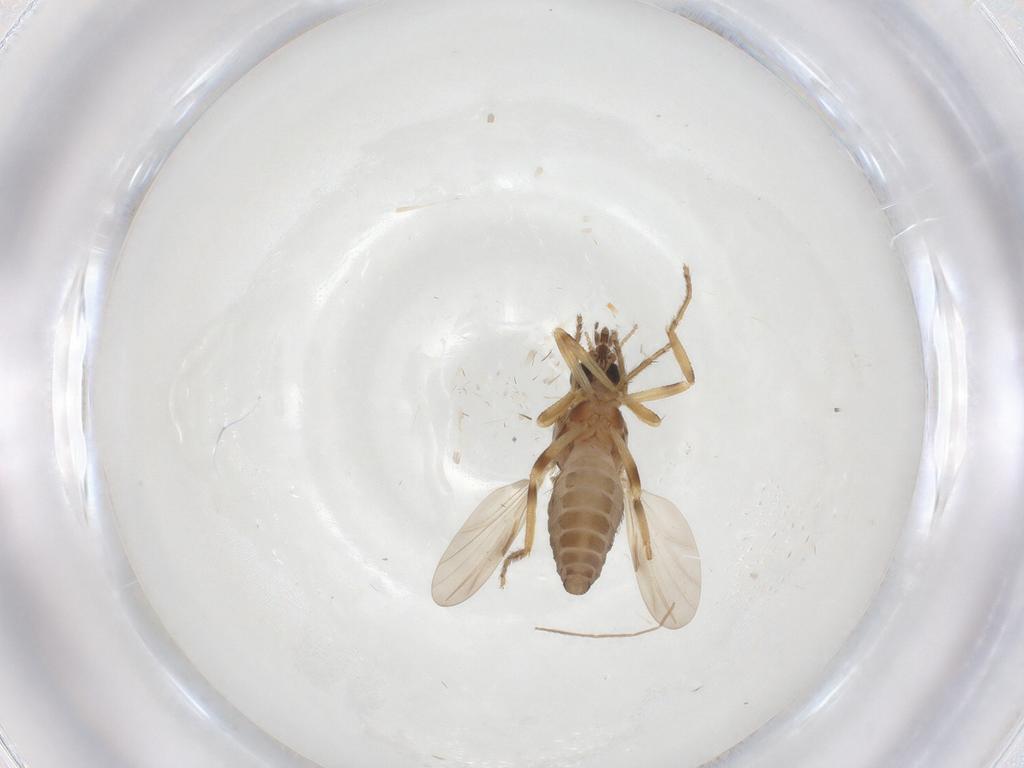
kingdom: Animalia
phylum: Arthropoda
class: Insecta
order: Diptera
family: Ceratopogonidae
